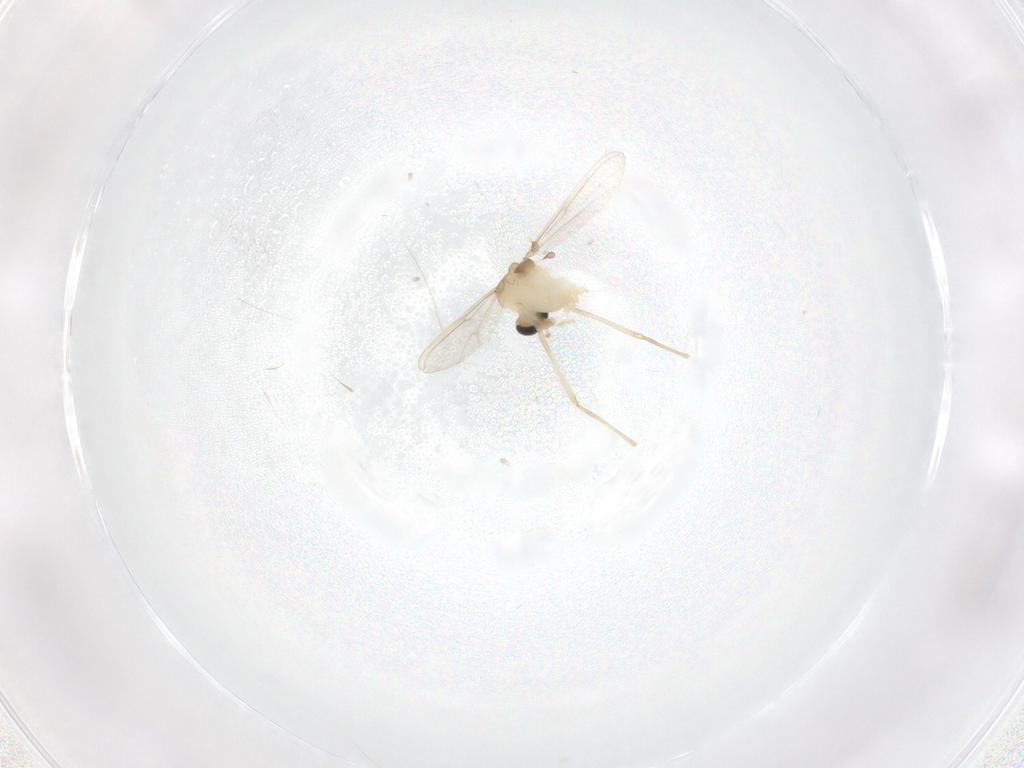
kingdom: Animalia
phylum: Arthropoda
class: Insecta
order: Diptera
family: Chironomidae
